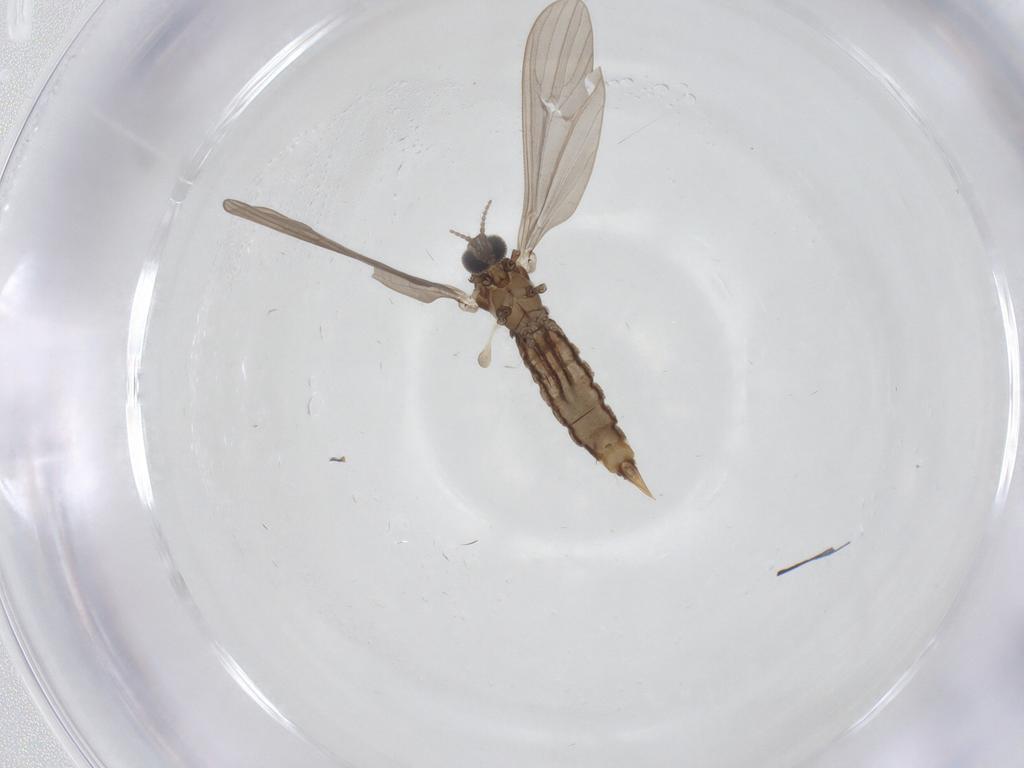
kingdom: Animalia
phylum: Arthropoda
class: Insecta
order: Diptera
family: Limoniidae
